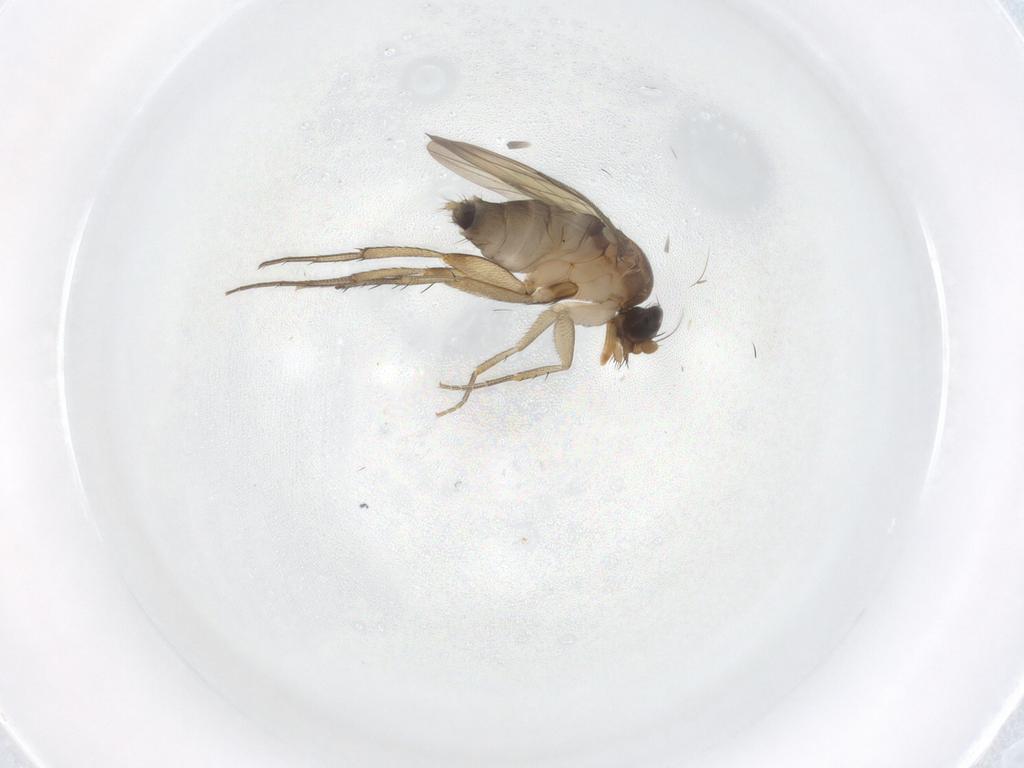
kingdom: Animalia
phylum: Arthropoda
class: Insecta
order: Diptera
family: Phoridae
